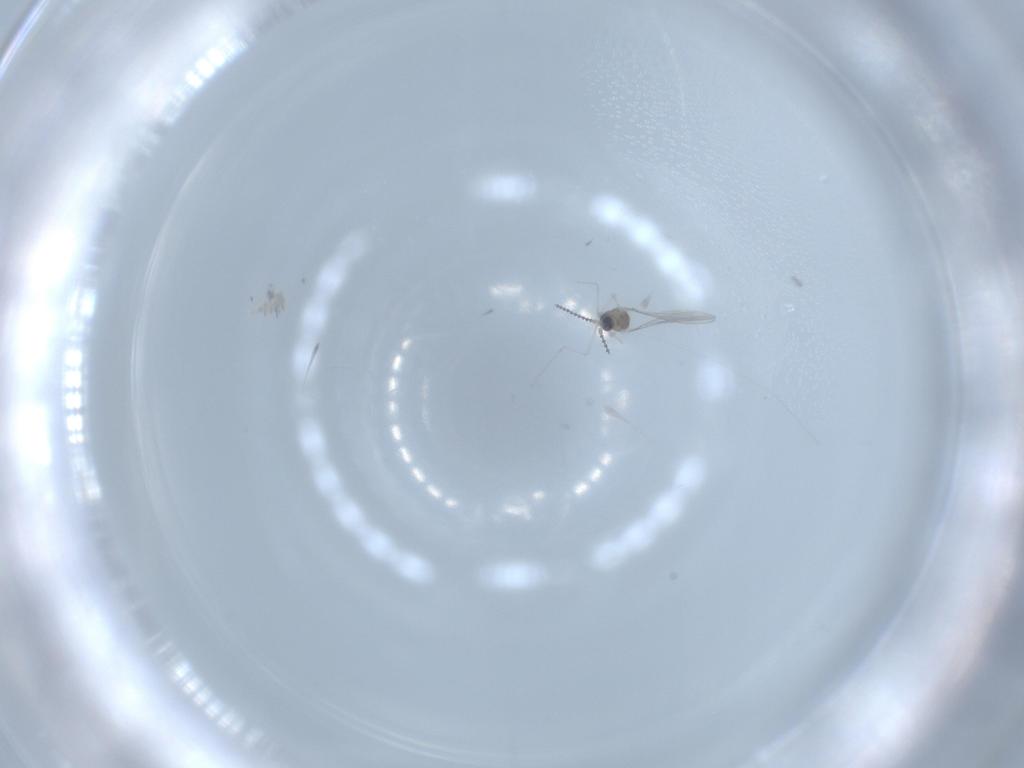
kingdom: Animalia
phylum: Arthropoda
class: Insecta
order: Diptera
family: Cecidomyiidae
